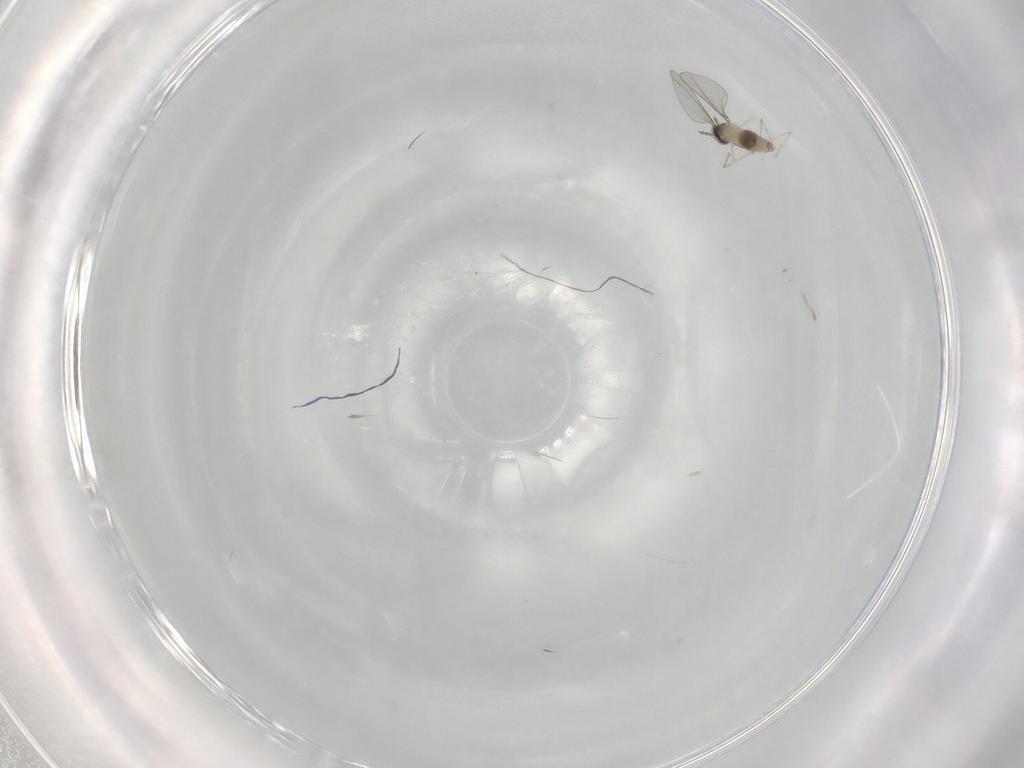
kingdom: Animalia
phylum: Arthropoda
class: Insecta
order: Diptera
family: Cecidomyiidae
